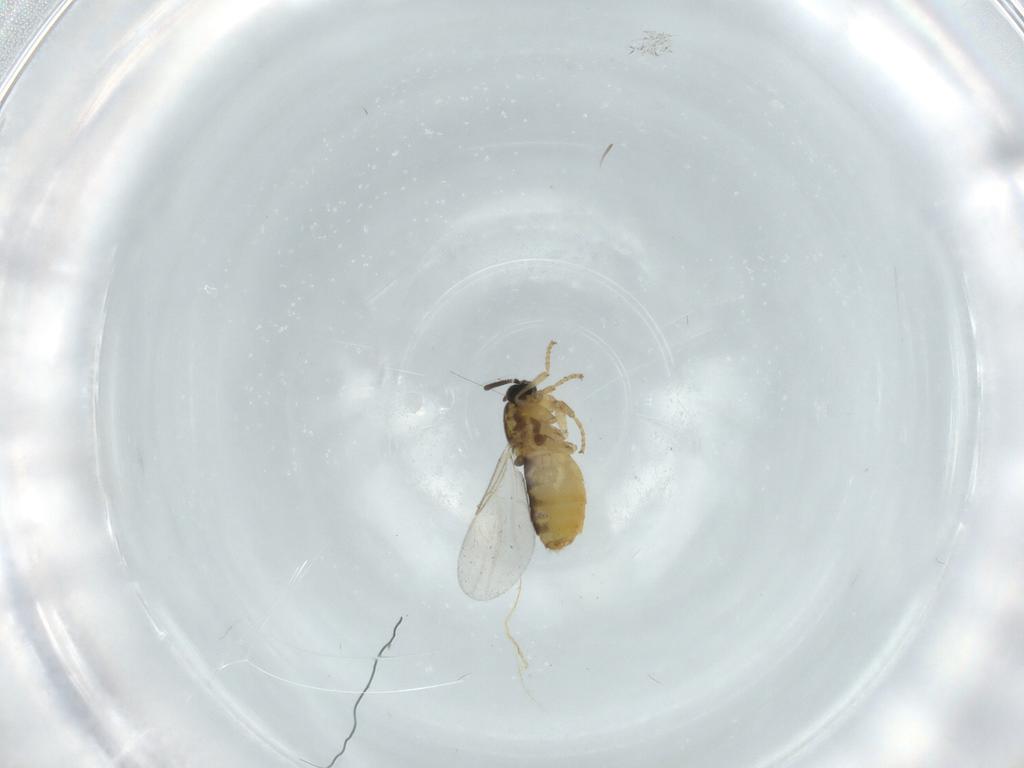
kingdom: Animalia
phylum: Arthropoda
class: Insecta
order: Diptera
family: Scatopsidae
